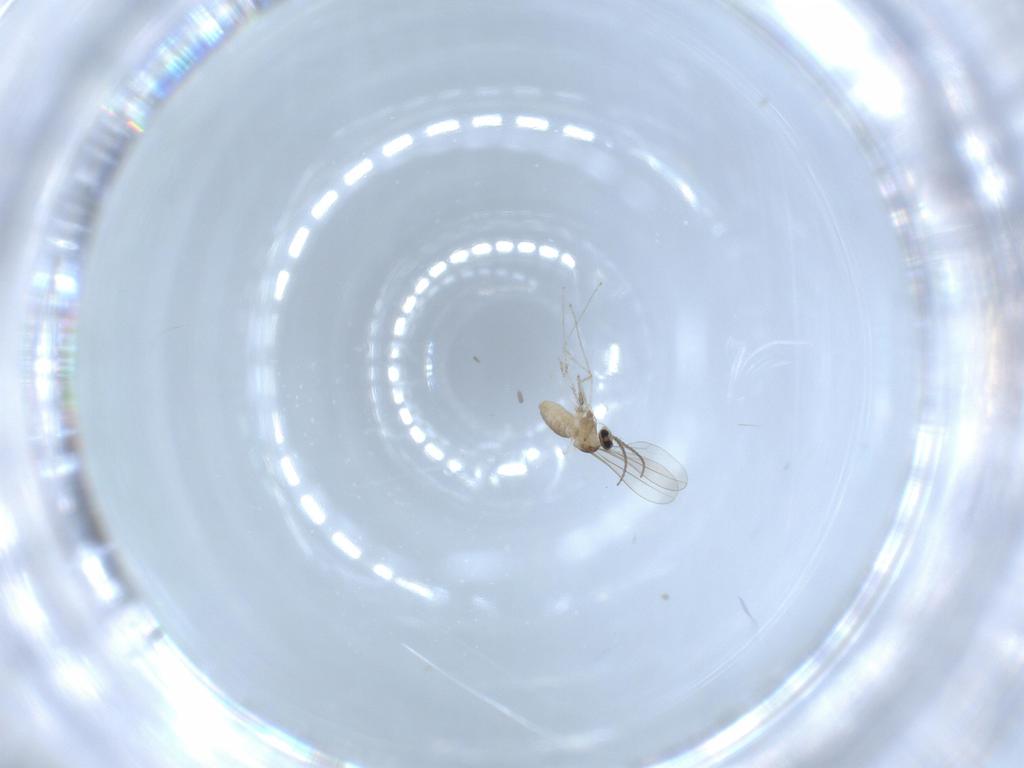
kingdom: Animalia
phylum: Arthropoda
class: Insecta
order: Diptera
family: Cecidomyiidae
